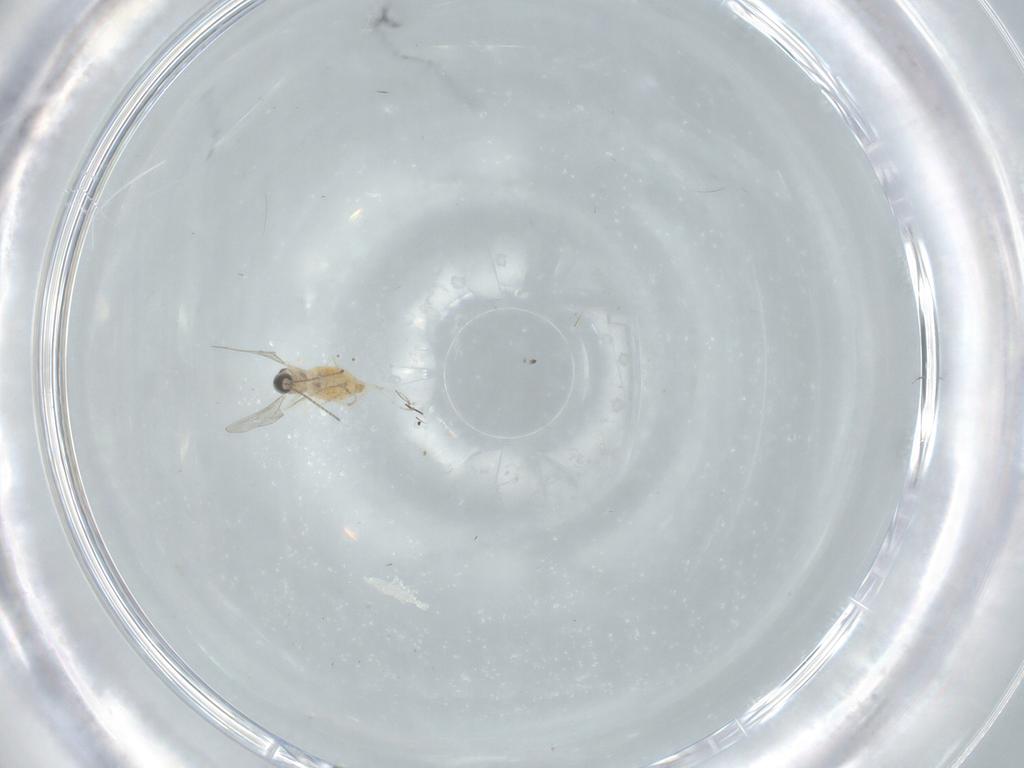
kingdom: Animalia
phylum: Arthropoda
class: Insecta
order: Diptera
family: Cecidomyiidae
